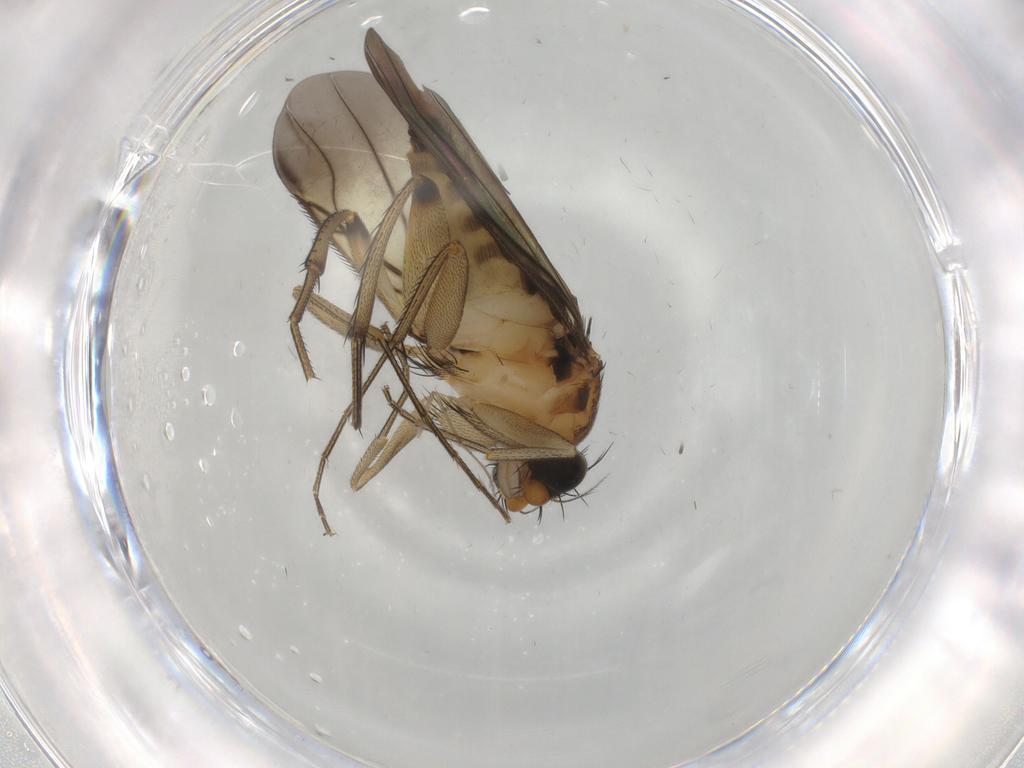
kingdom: Animalia
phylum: Arthropoda
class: Insecta
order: Diptera
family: Phoridae
